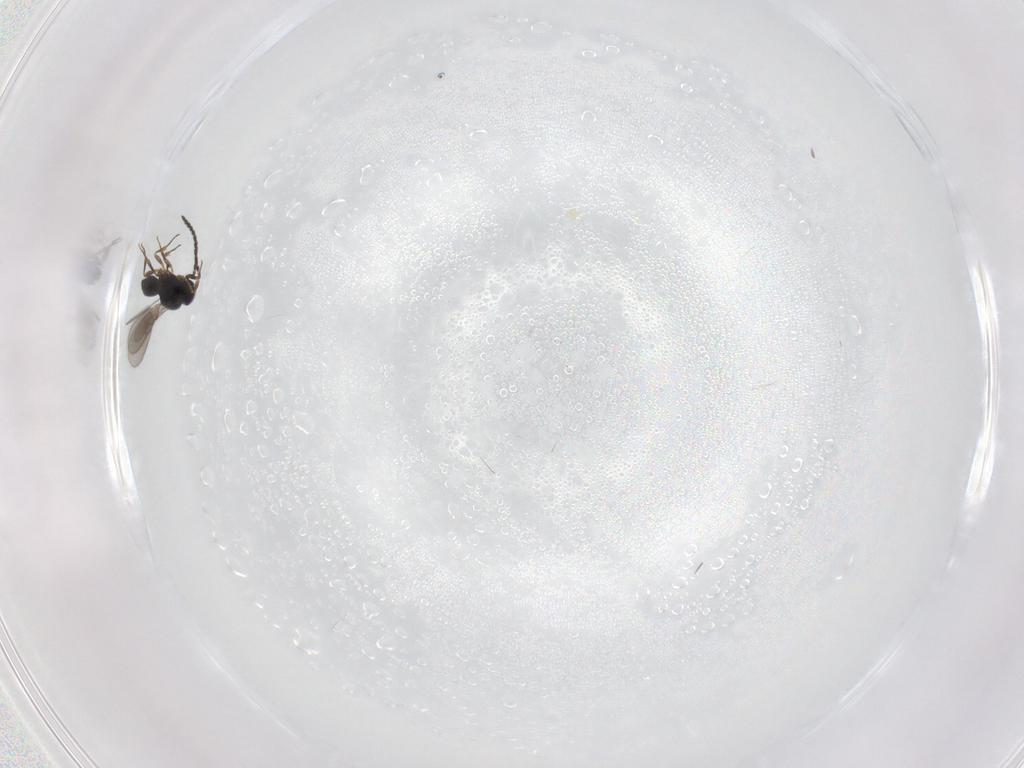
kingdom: Animalia
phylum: Arthropoda
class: Insecta
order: Hymenoptera
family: Scelionidae
